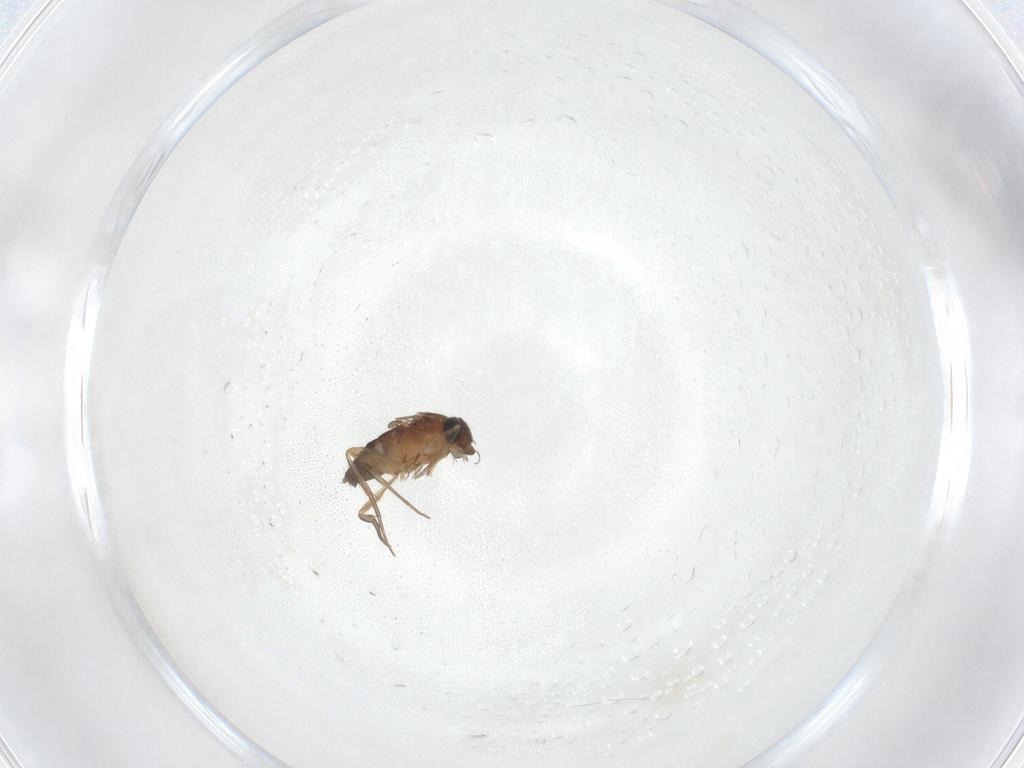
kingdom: Animalia
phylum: Arthropoda
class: Insecta
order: Diptera
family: Phoridae
